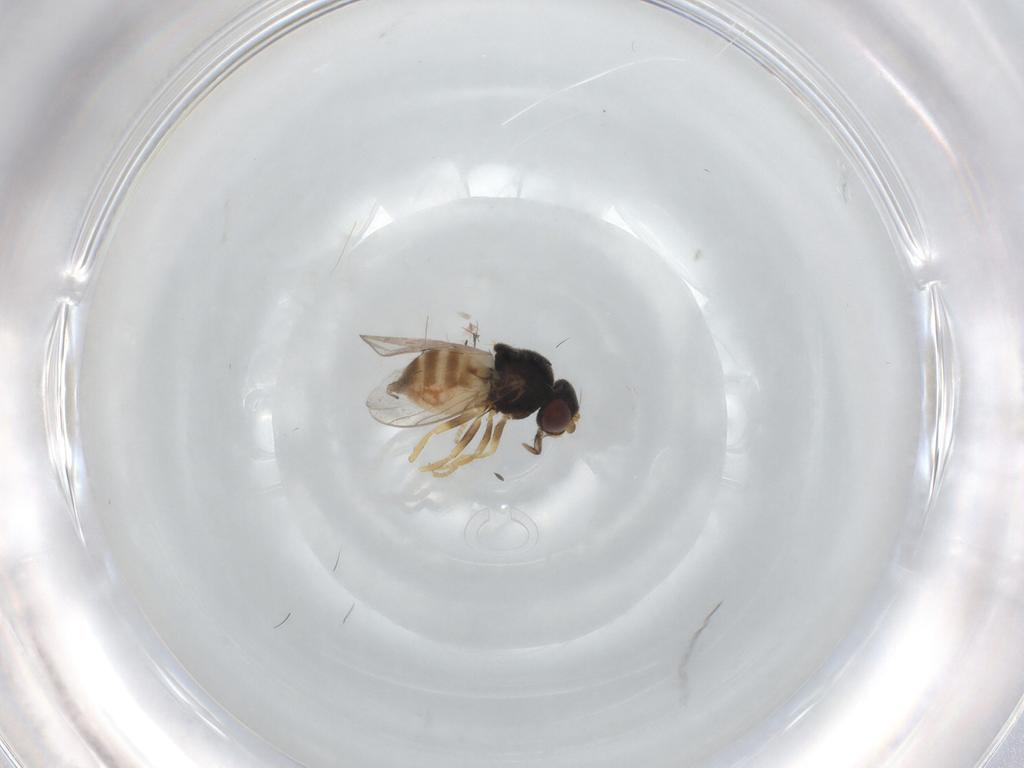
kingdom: Animalia
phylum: Arthropoda
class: Insecta
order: Diptera
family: Chloropidae
